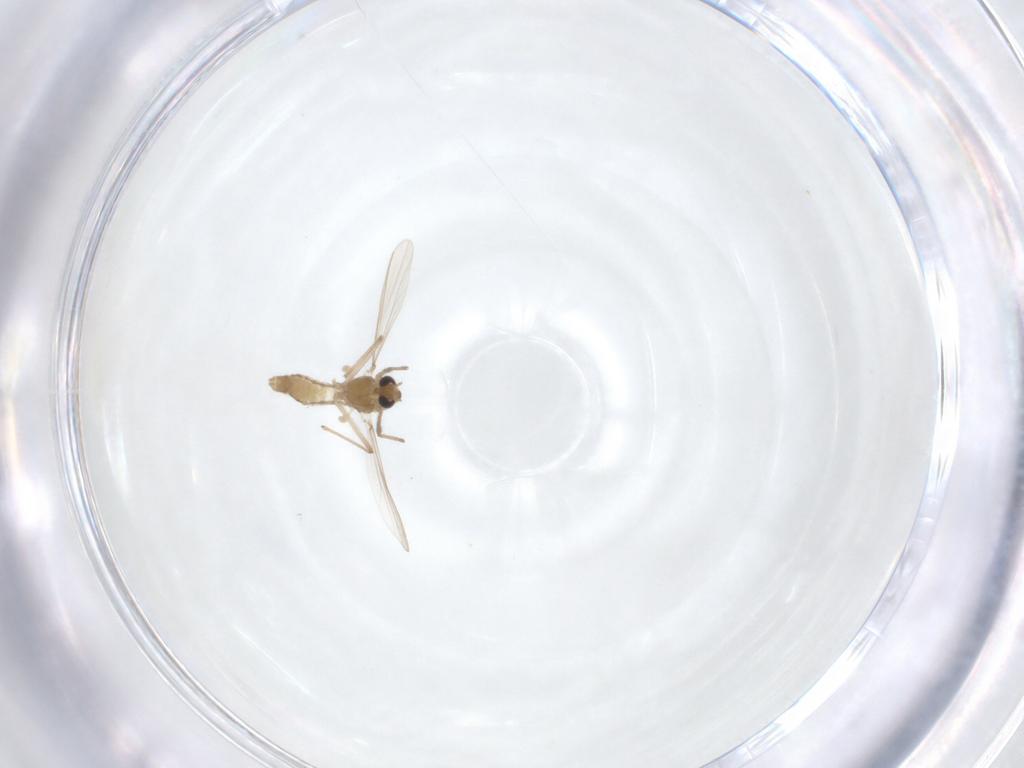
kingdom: Animalia
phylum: Arthropoda
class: Insecta
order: Diptera
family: Chironomidae
